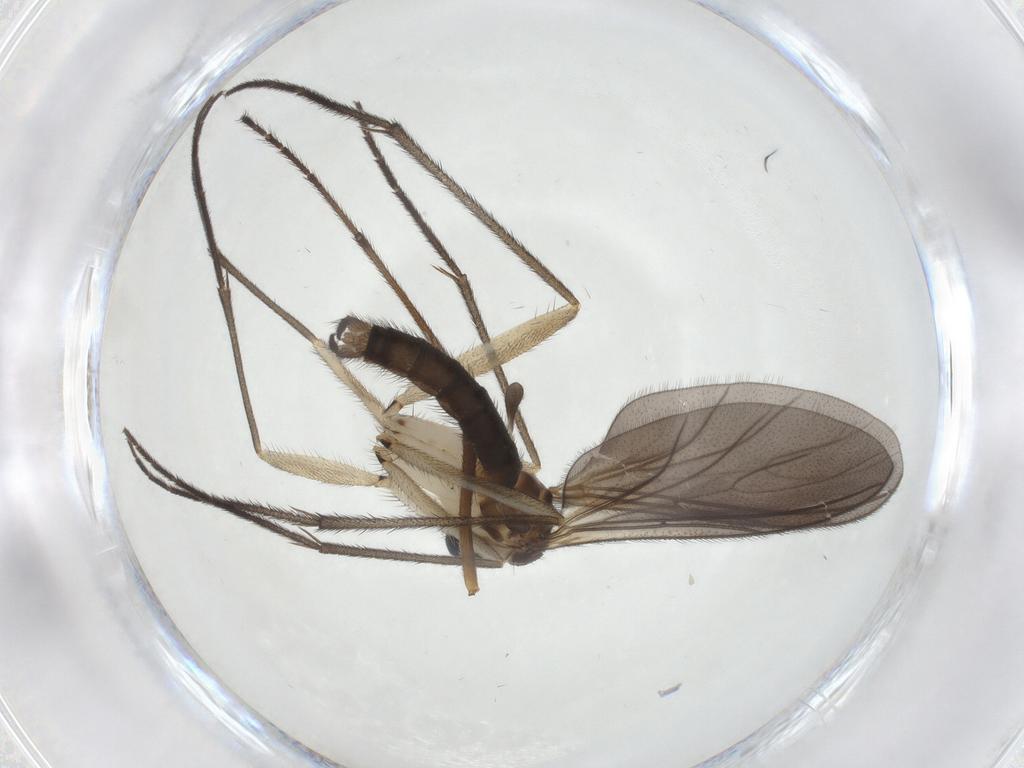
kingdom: Animalia
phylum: Arthropoda
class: Insecta
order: Diptera
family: Sciaridae
